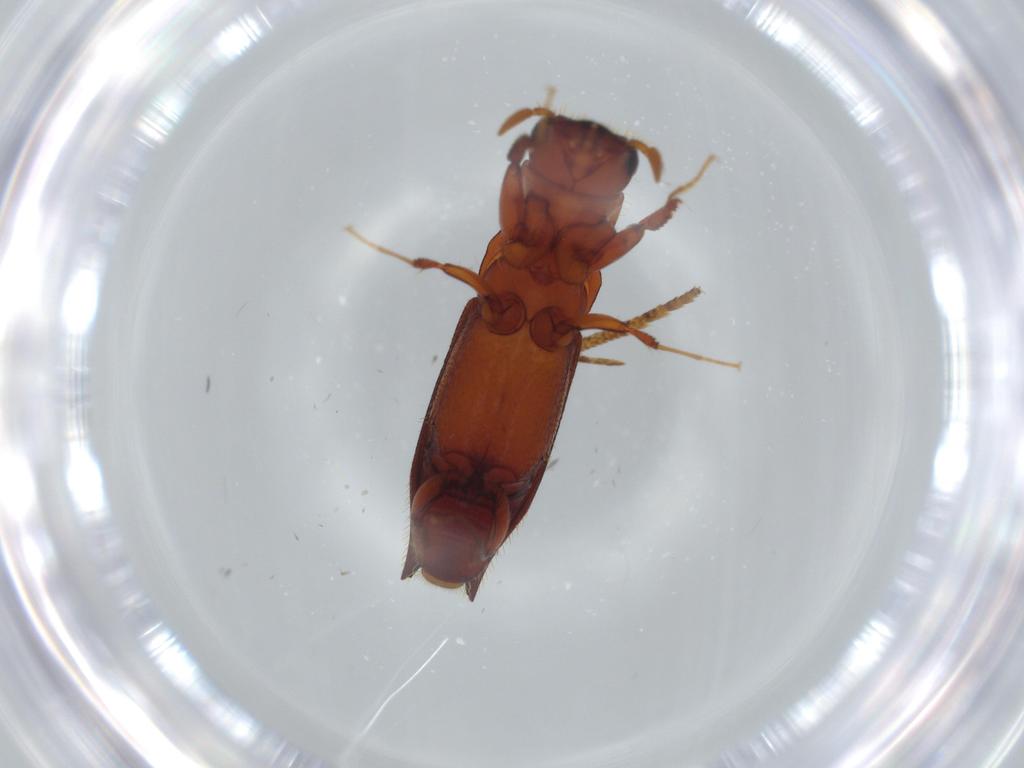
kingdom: Animalia
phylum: Arthropoda
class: Insecta
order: Coleoptera
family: Curculionidae
